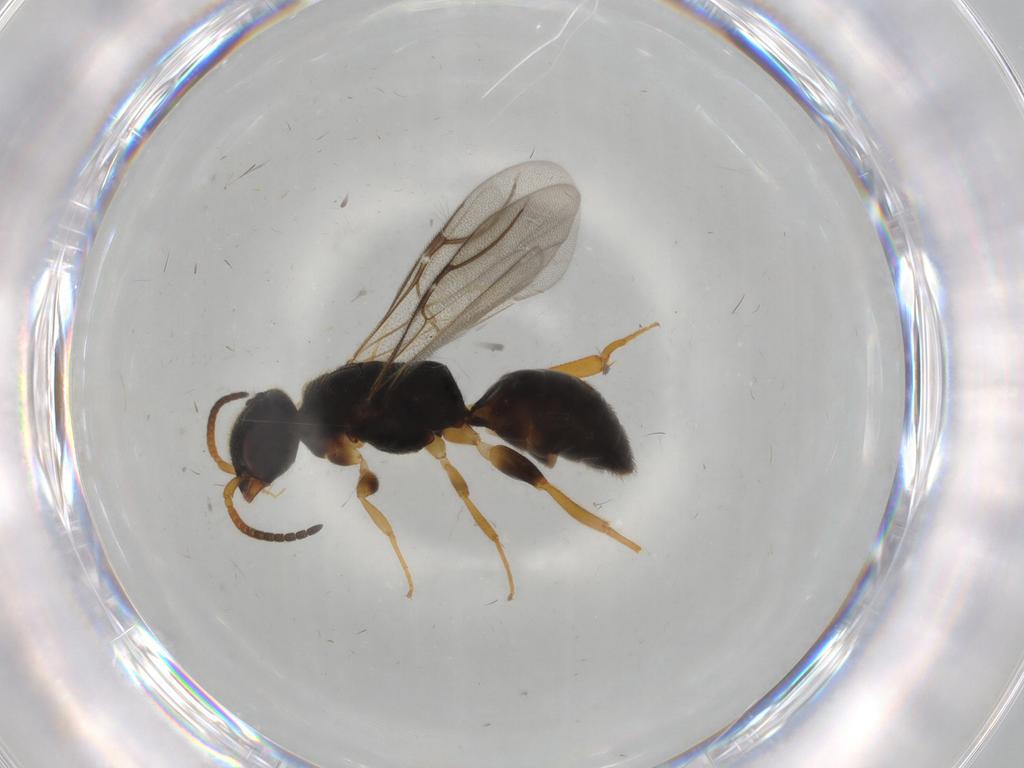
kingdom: Animalia
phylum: Arthropoda
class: Insecta
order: Hymenoptera
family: Bethylidae
